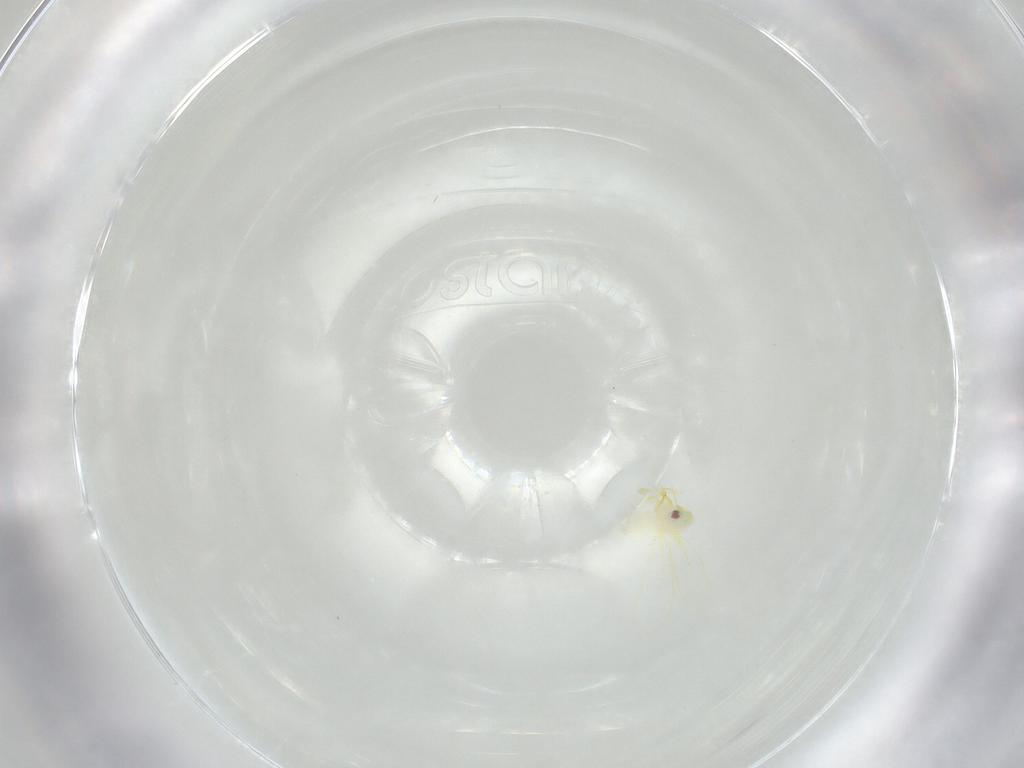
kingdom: Animalia
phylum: Arthropoda
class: Insecta
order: Hemiptera
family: Aleyrodidae
